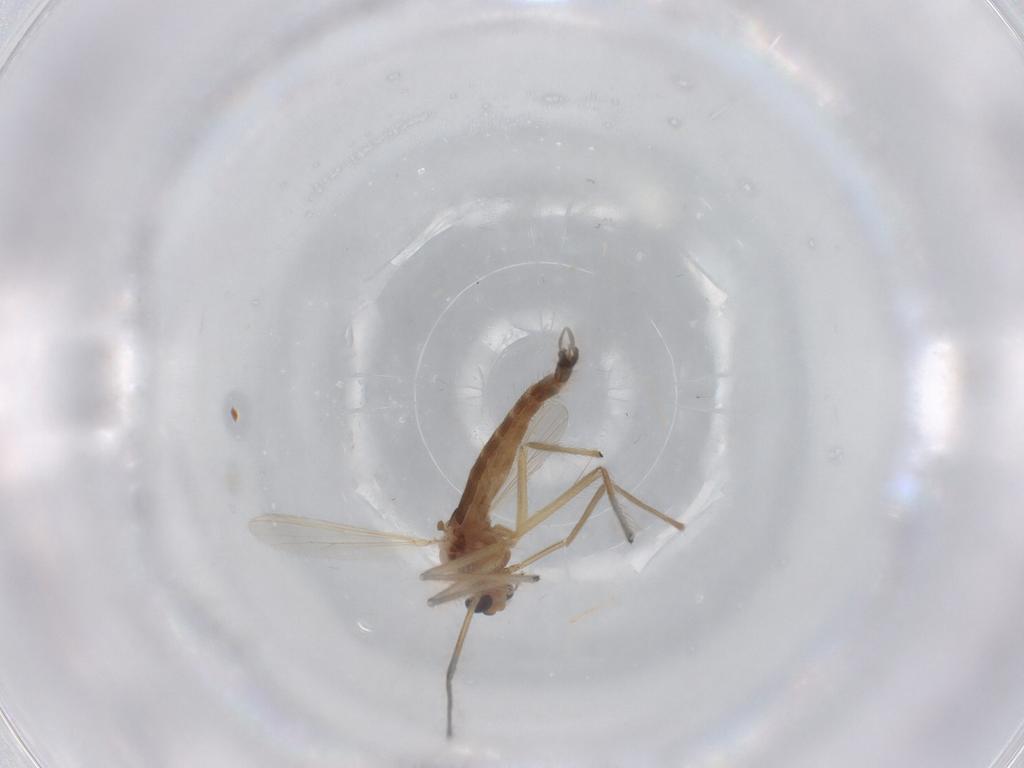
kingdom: Animalia
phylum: Arthropoda
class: Insecta
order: Diptera
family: Chironomidae
